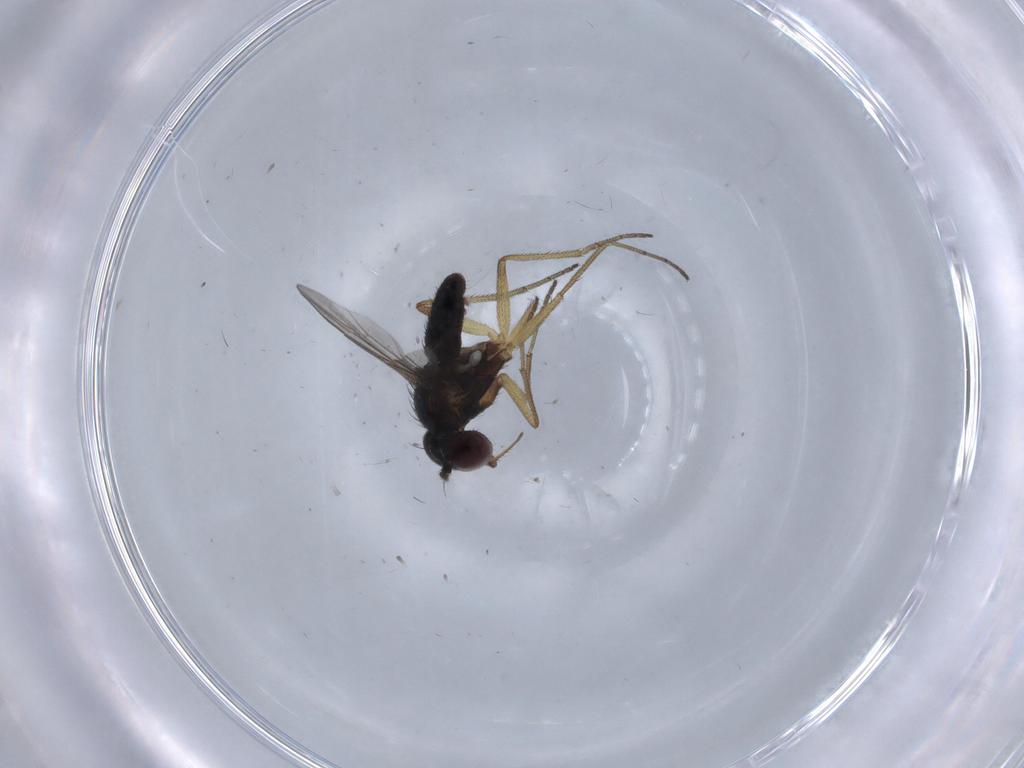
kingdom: Animalia
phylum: Arthropoda
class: Insecta
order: Diptera
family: Dolichopodidae
